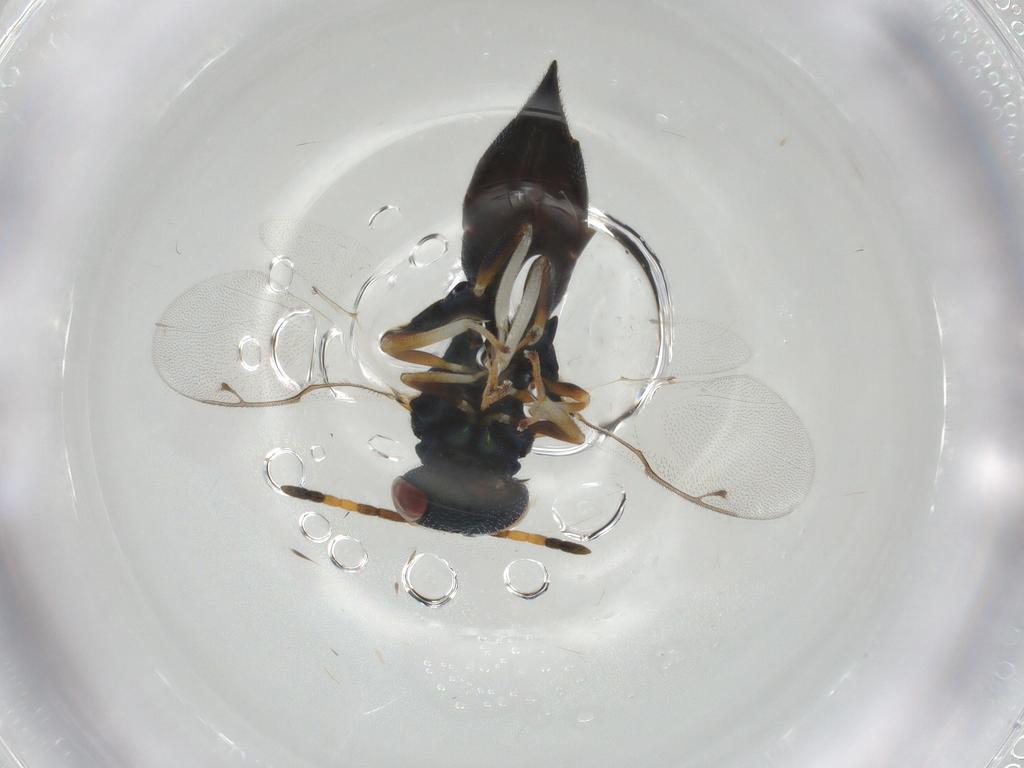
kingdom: Animalia
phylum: Arthropoda
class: Insecta
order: Hymenoptera
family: Eulophidae
